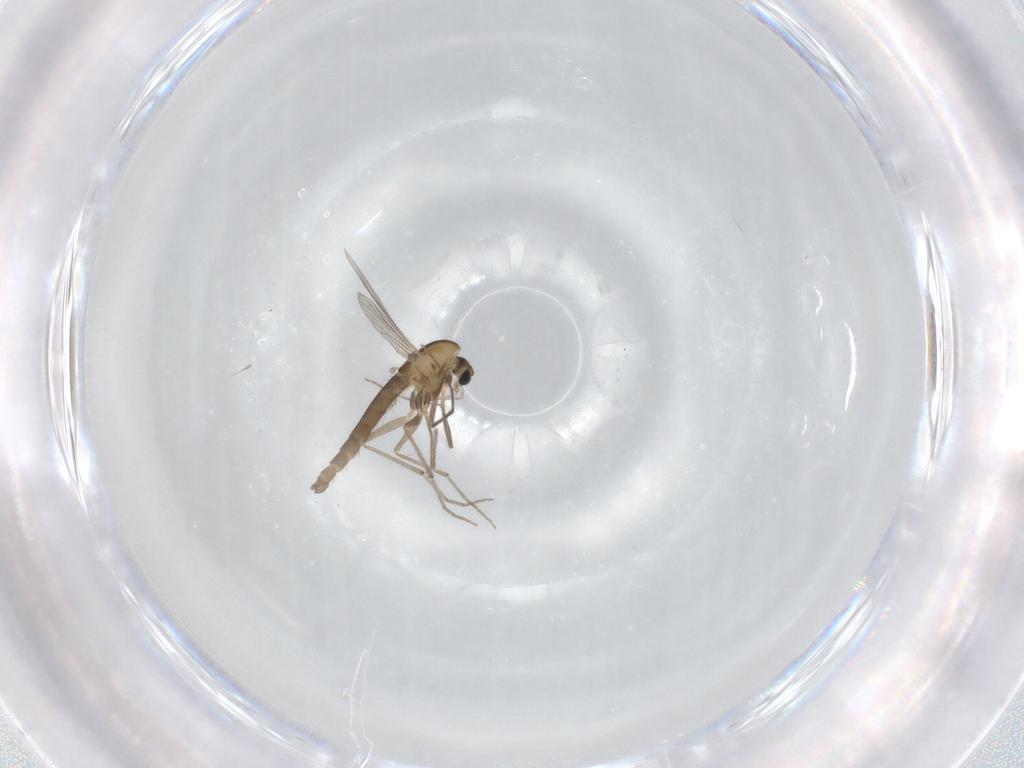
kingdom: Animalia
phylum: Arthropoda
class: Insecta
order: Diptera
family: Chironomidae
